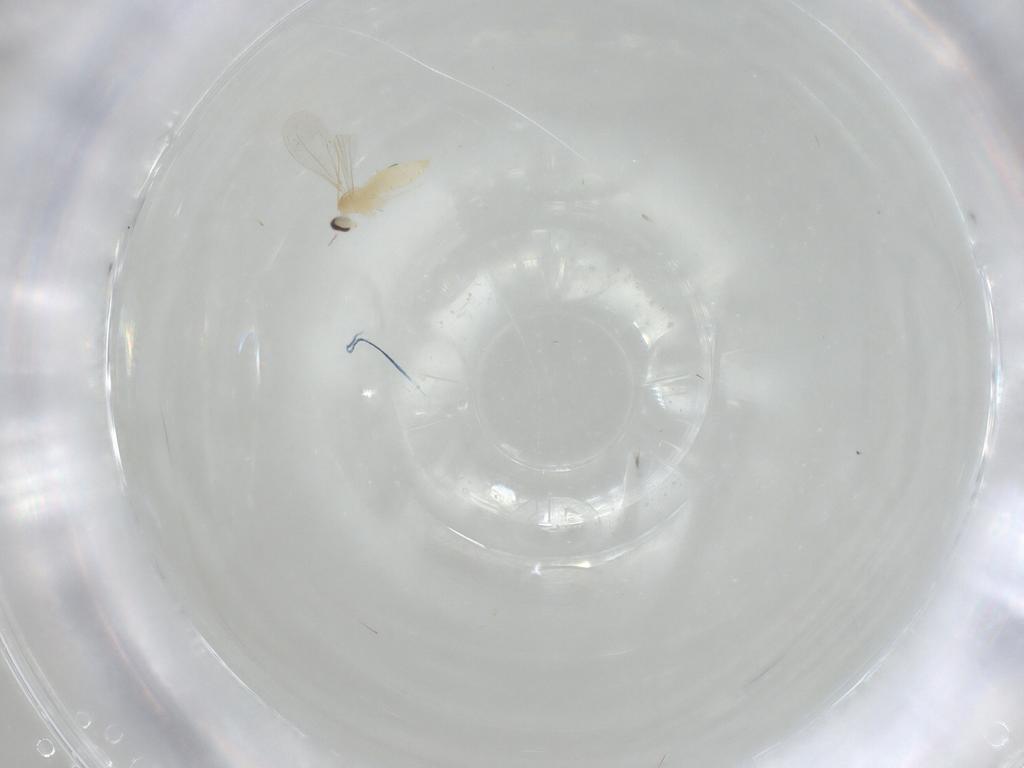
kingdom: Animalia
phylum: Arthropoda
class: Insecta
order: Diptera
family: Cecidomyiidae
